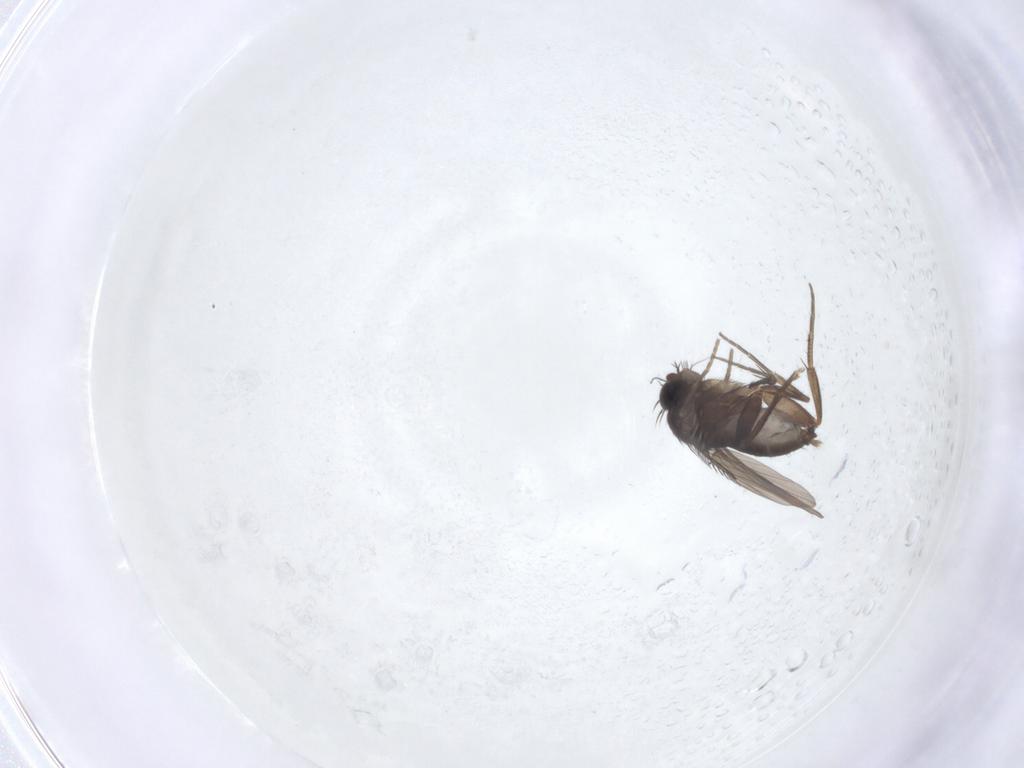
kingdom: Animalia
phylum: Arthropoda
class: Insecta
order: Diptera
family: Phoridae
